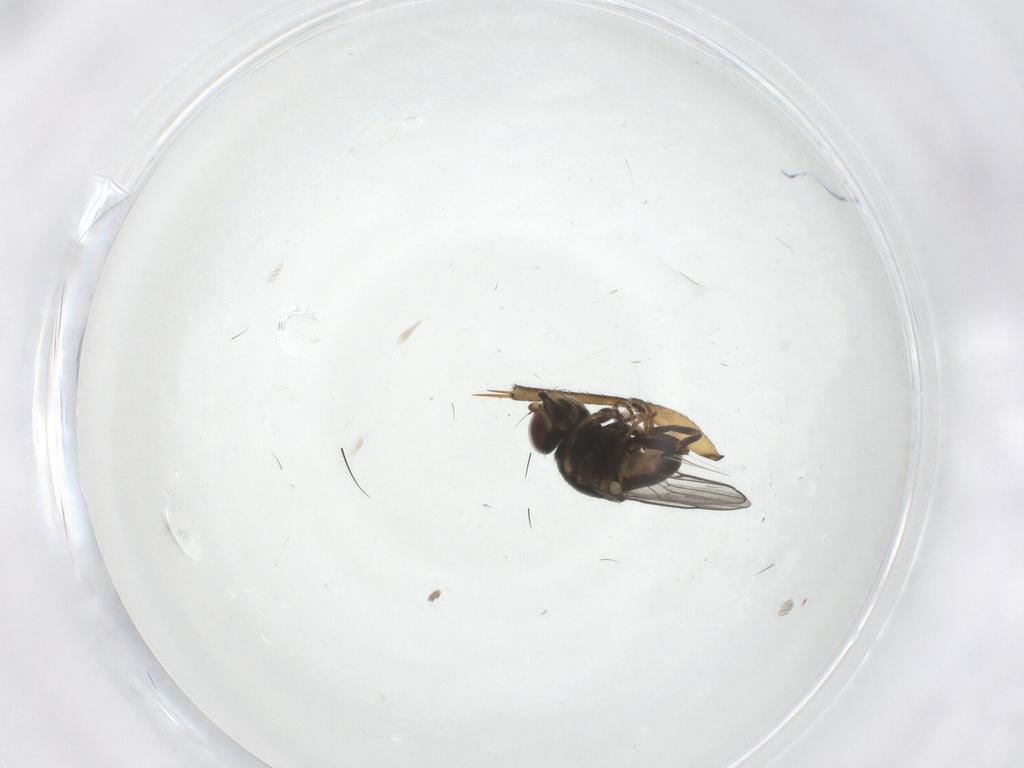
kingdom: Animalia
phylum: Arthropoda
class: Insecta
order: Diptera
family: Chloropidae
